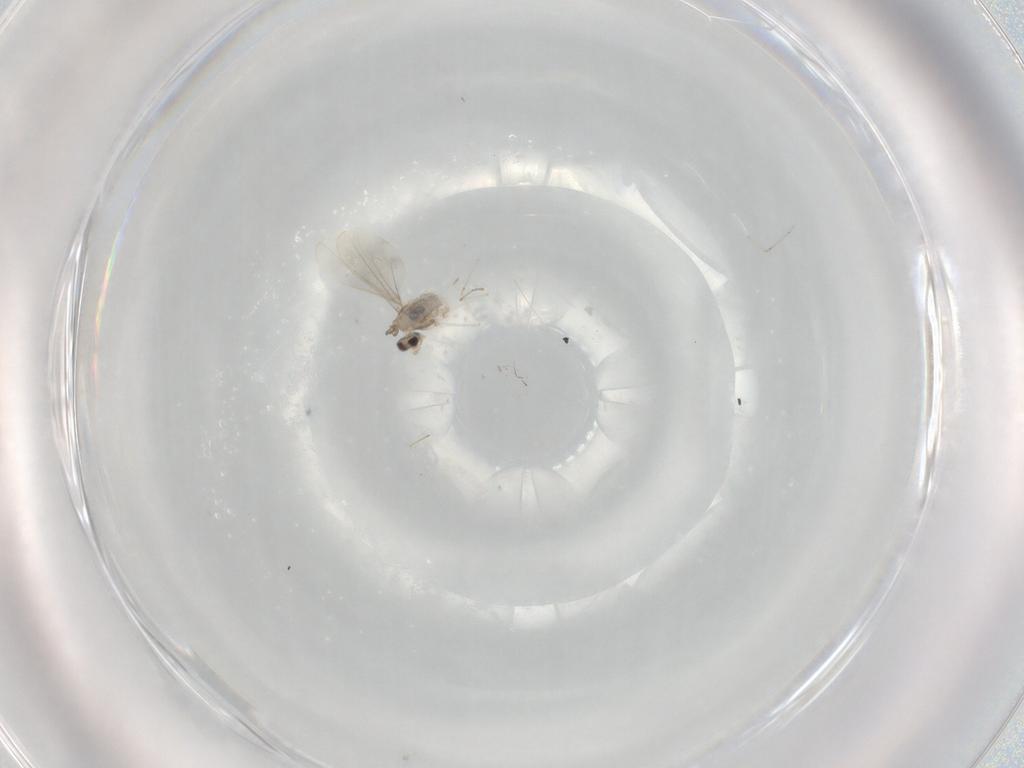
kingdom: Animalia
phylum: Arthropoda
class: Insecta
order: Diptera
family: Cecidomyiidae
